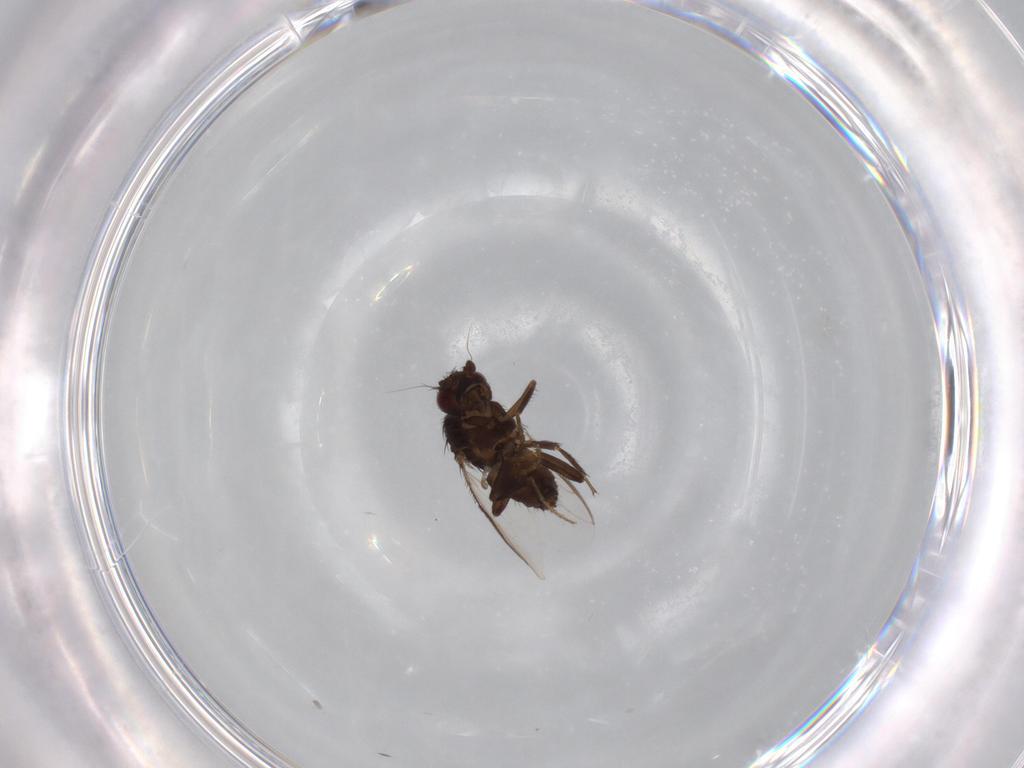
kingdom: Animalia
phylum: Arthropoda
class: Insecta
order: Diptera
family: Sphaeroceridae
